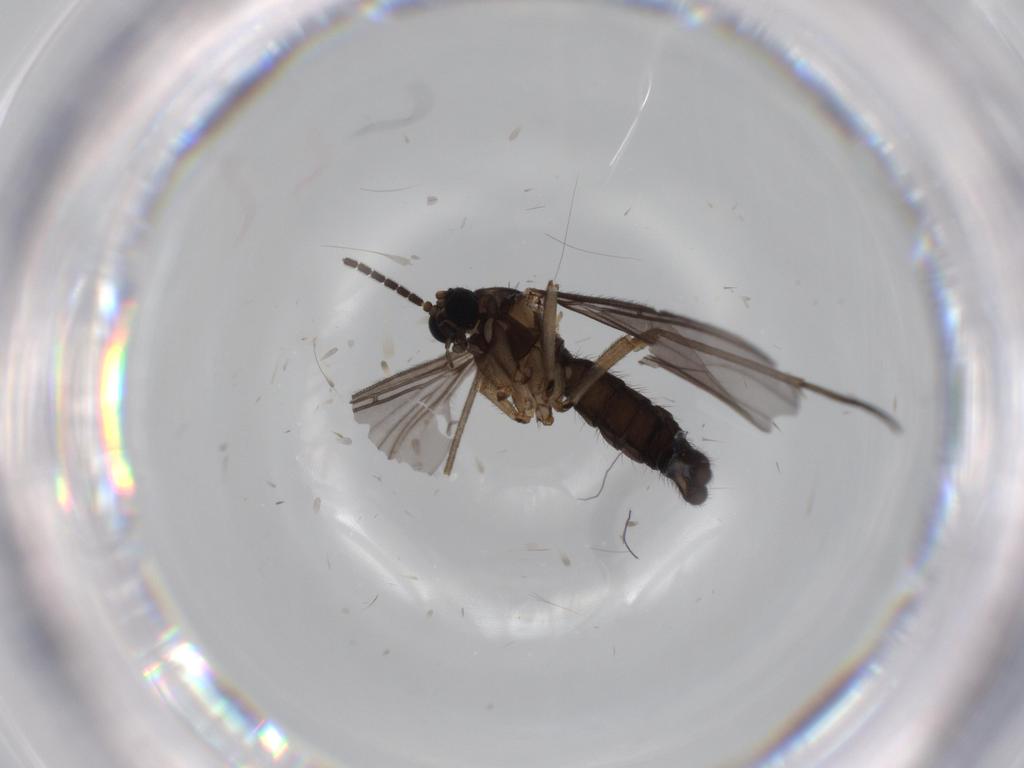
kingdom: Animalia
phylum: Arthropoda
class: Insecta
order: Diptera
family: Sciaridae
